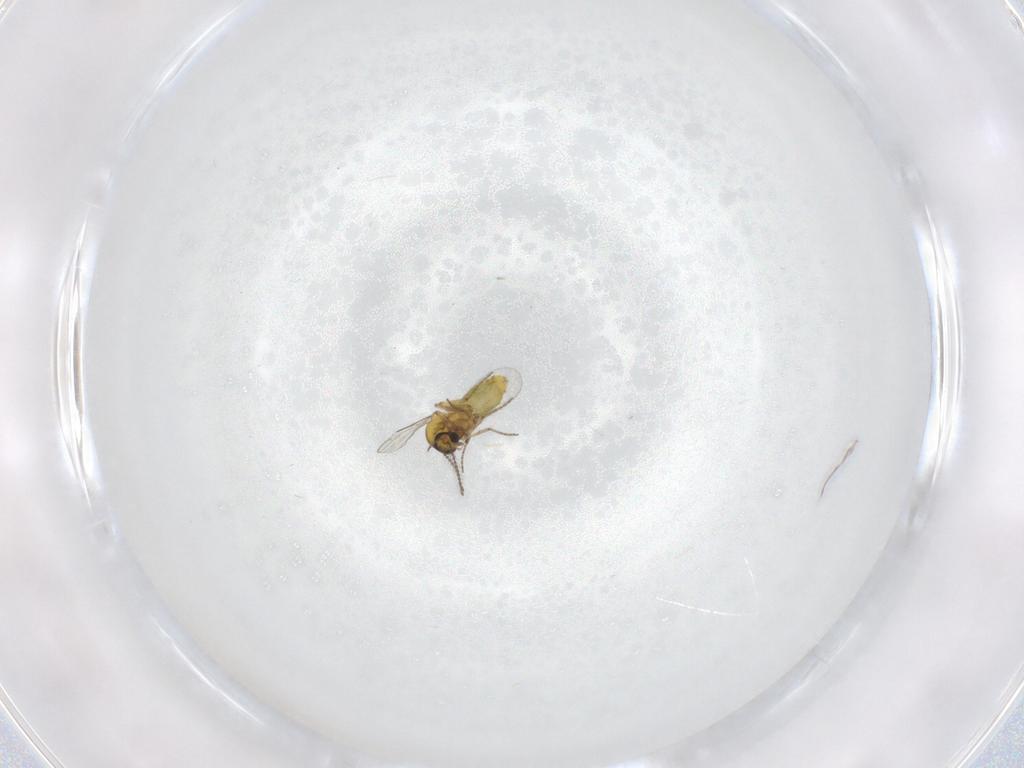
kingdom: Animalia
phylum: Arthropoda
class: Insecta
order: Diptera
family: Ceratopogonidae
